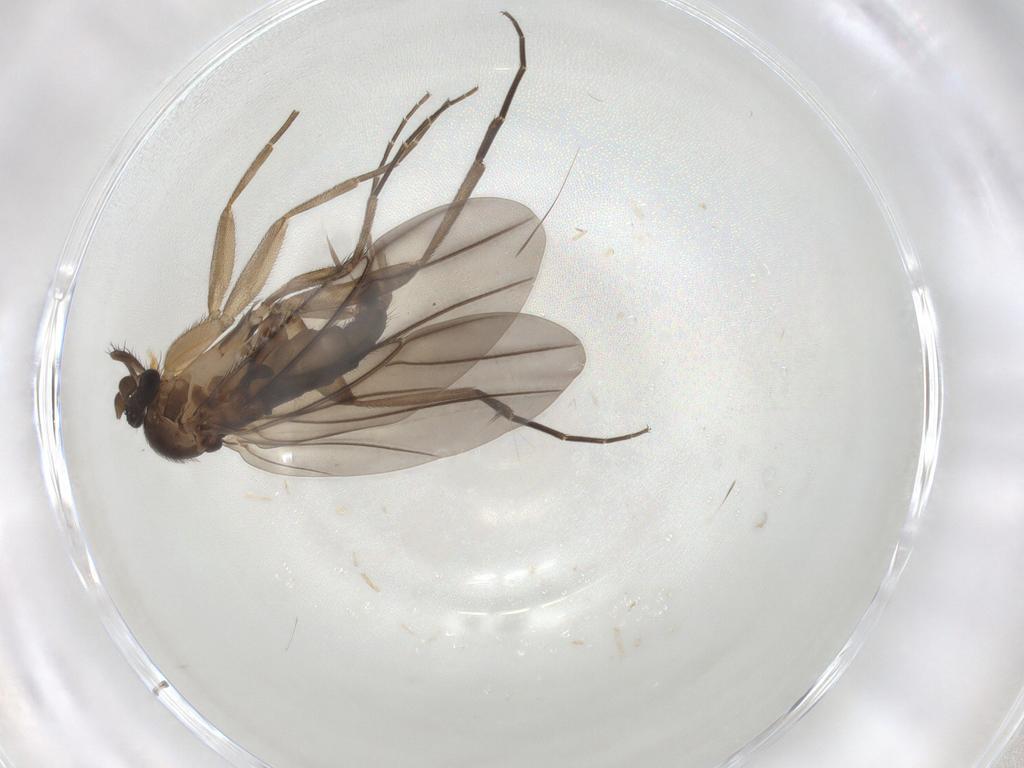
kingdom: Animalia
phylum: Arthropoda
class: Insecta
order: Diptera
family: Phoridae
